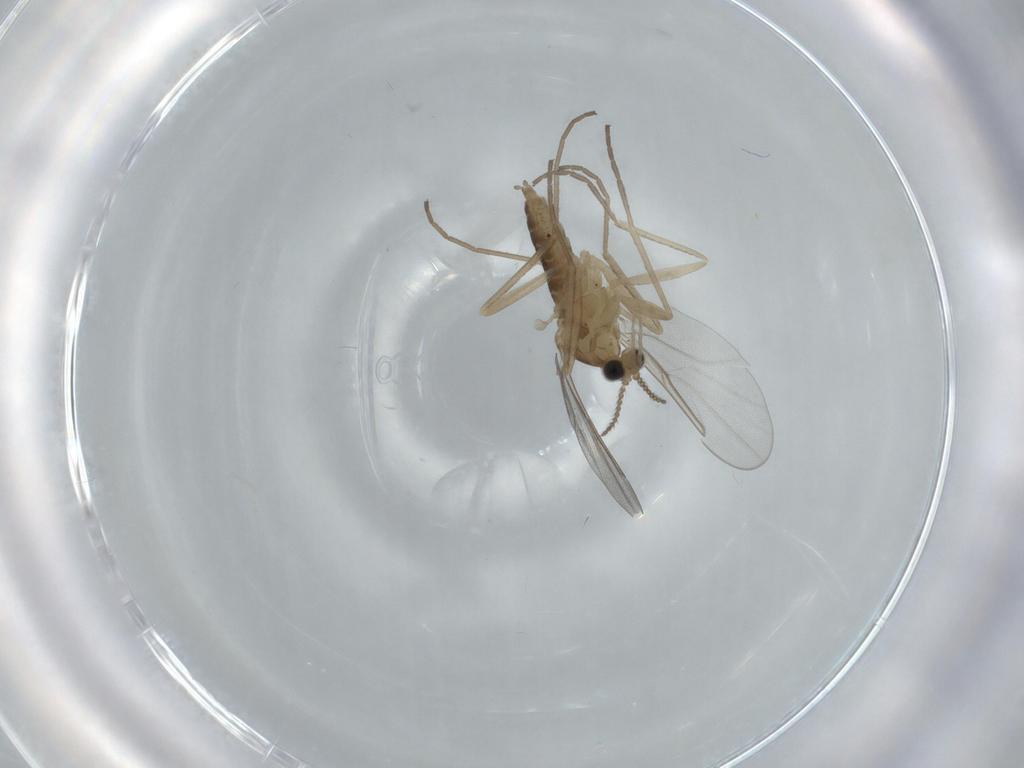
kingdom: Animalia
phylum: Arthropoda
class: Insecta
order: Diptera
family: Cecidomyiidae
